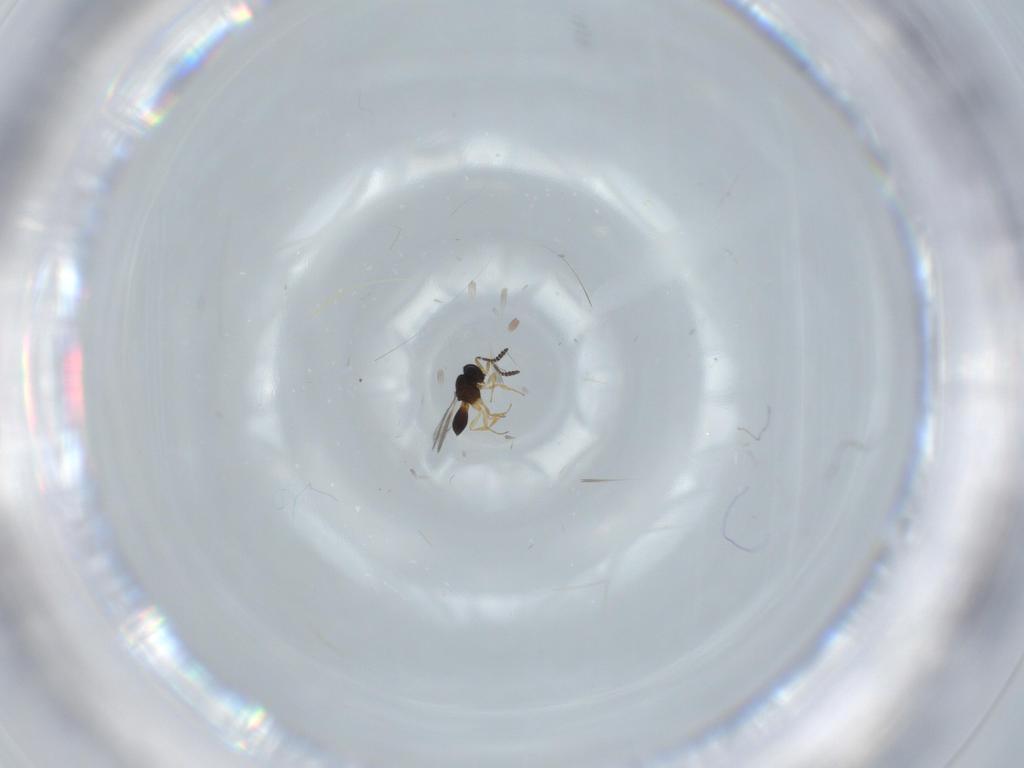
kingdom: Animalia
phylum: Arthropoda
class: Insecta
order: Hymenoptera
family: Scelionidae
